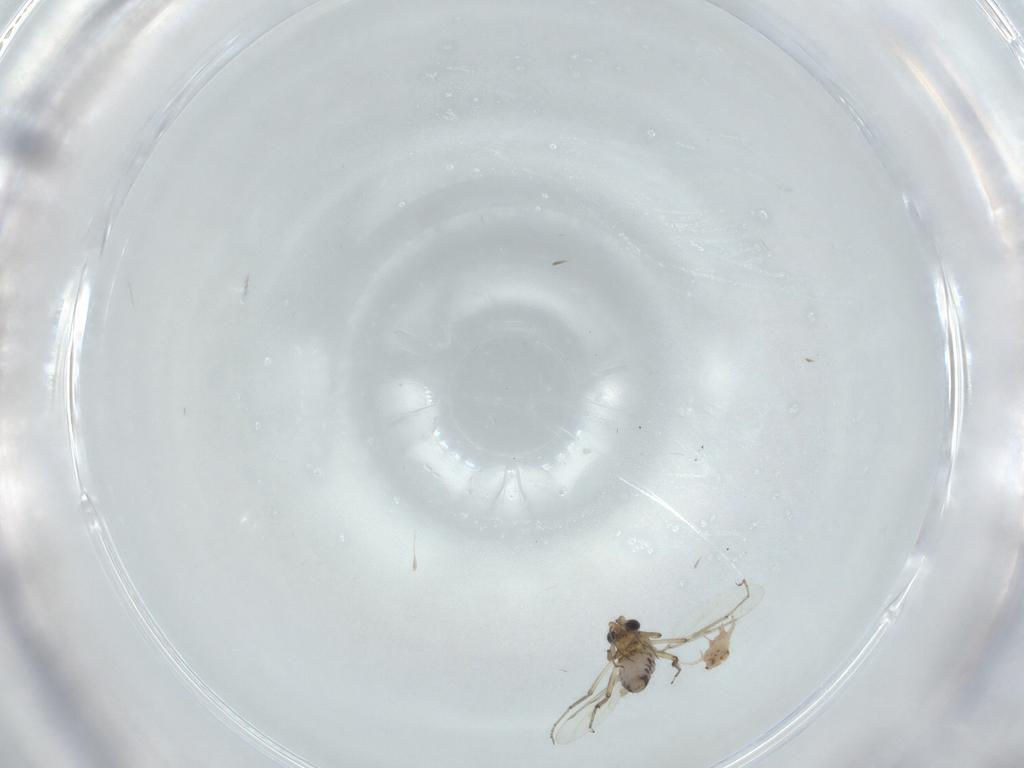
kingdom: Animalia
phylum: Arthropoda
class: Insecta
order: Diptera
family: Ceratopogonidae
